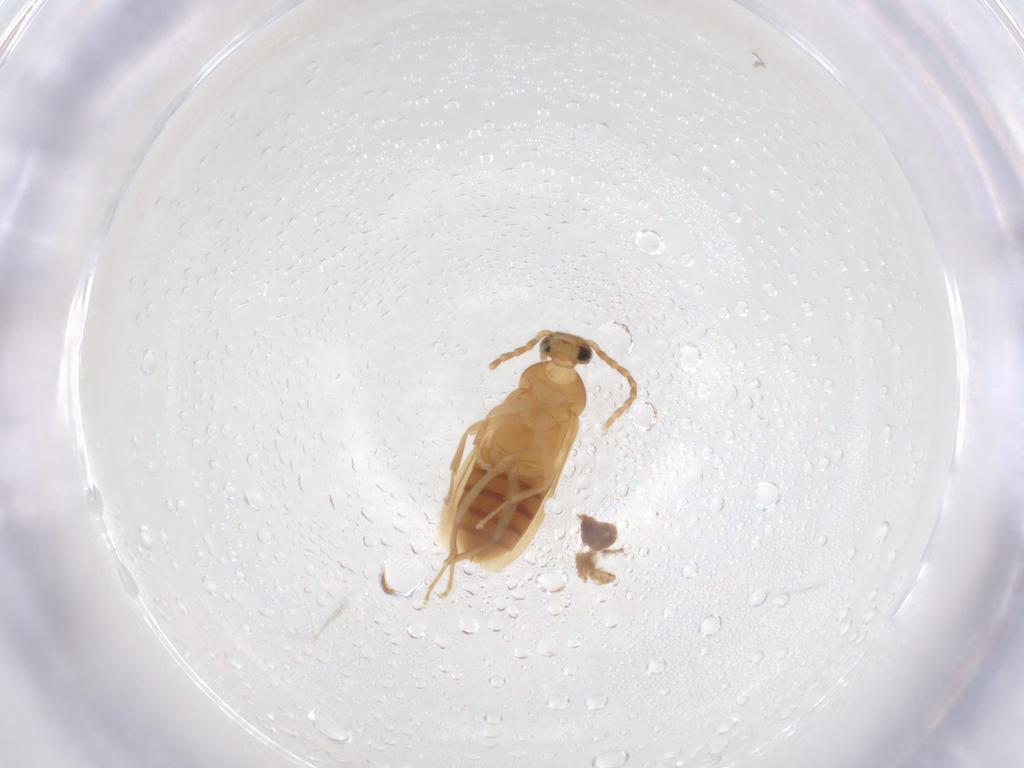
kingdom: Animalia
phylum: Arthropoda
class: Insecta
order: Coleoptera
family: Scraptiidae
